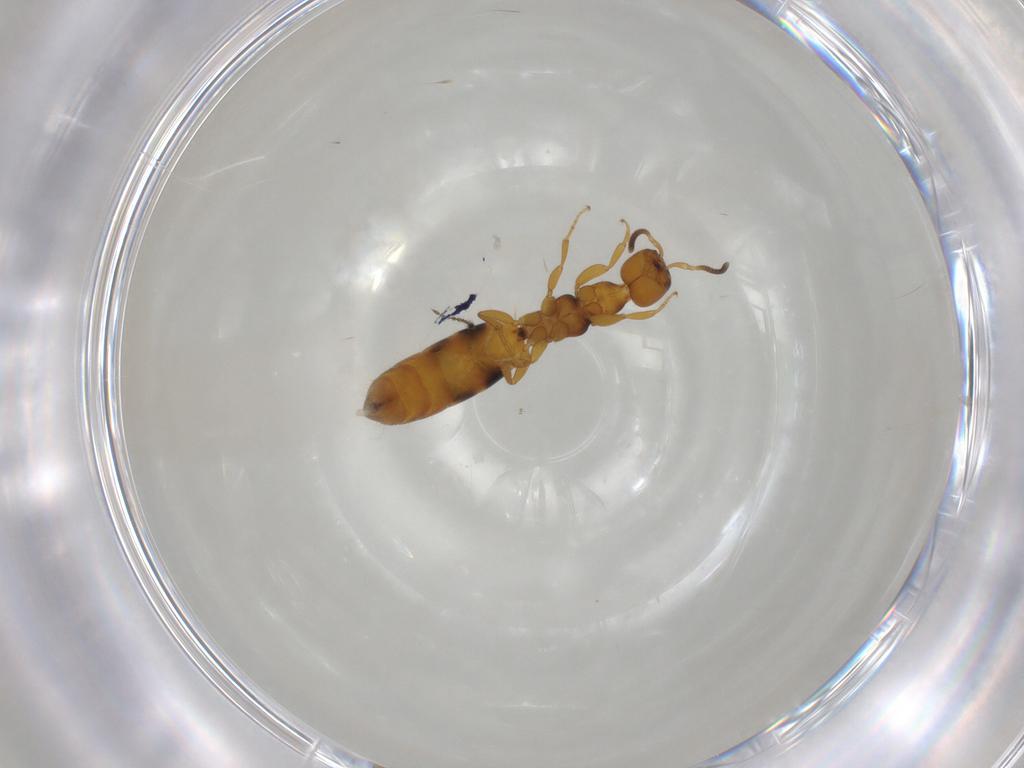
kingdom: Animalia
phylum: Arthropoda
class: Insecta
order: Hymenoptera
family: Bethylidae
